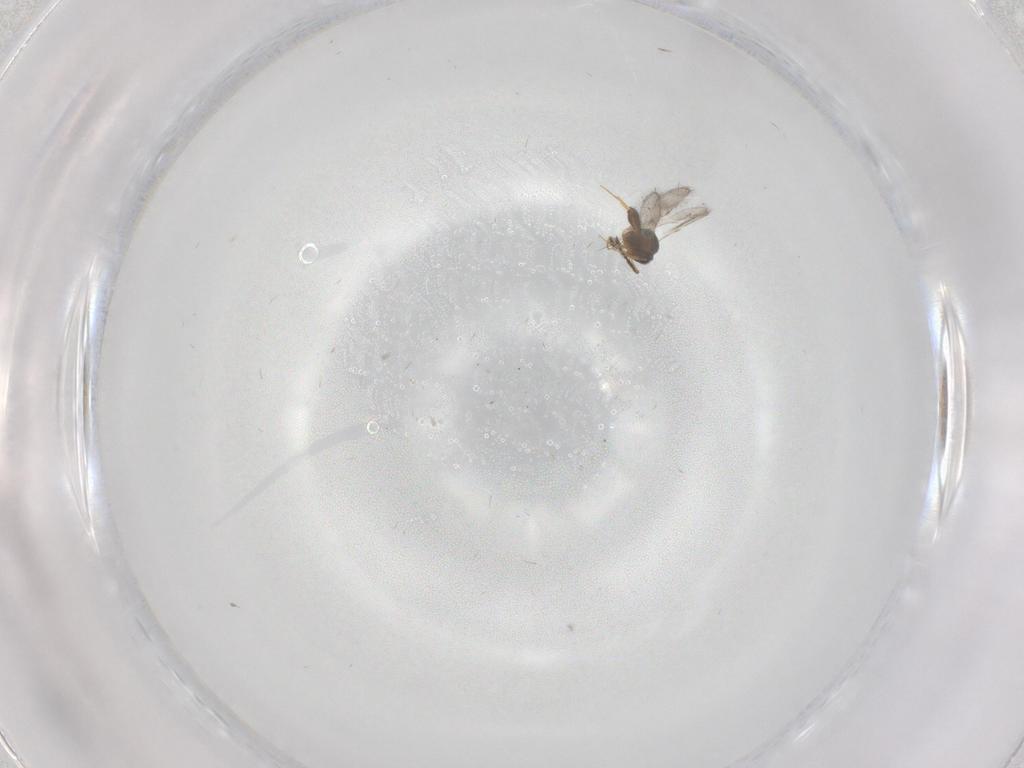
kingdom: Animalia
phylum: Arthropoda
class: Insecta
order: Hymenoptera
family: Scelionidae
